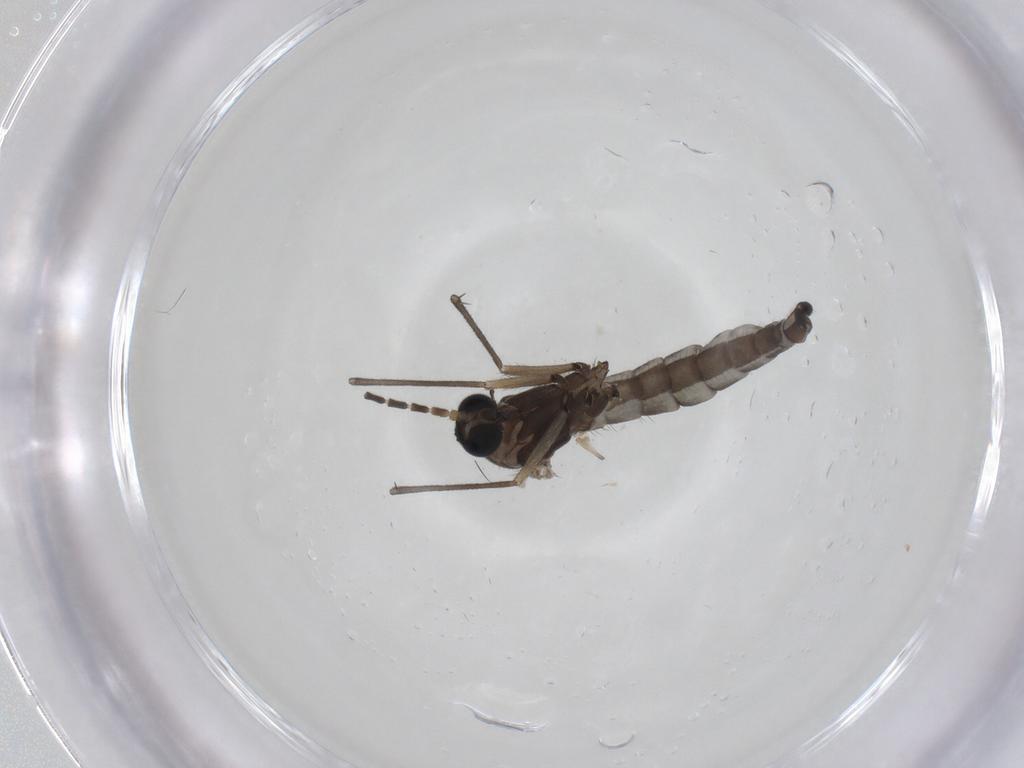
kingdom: Animalia
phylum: Arthropoda
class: Insecta
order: Diptera
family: Sciaridae
